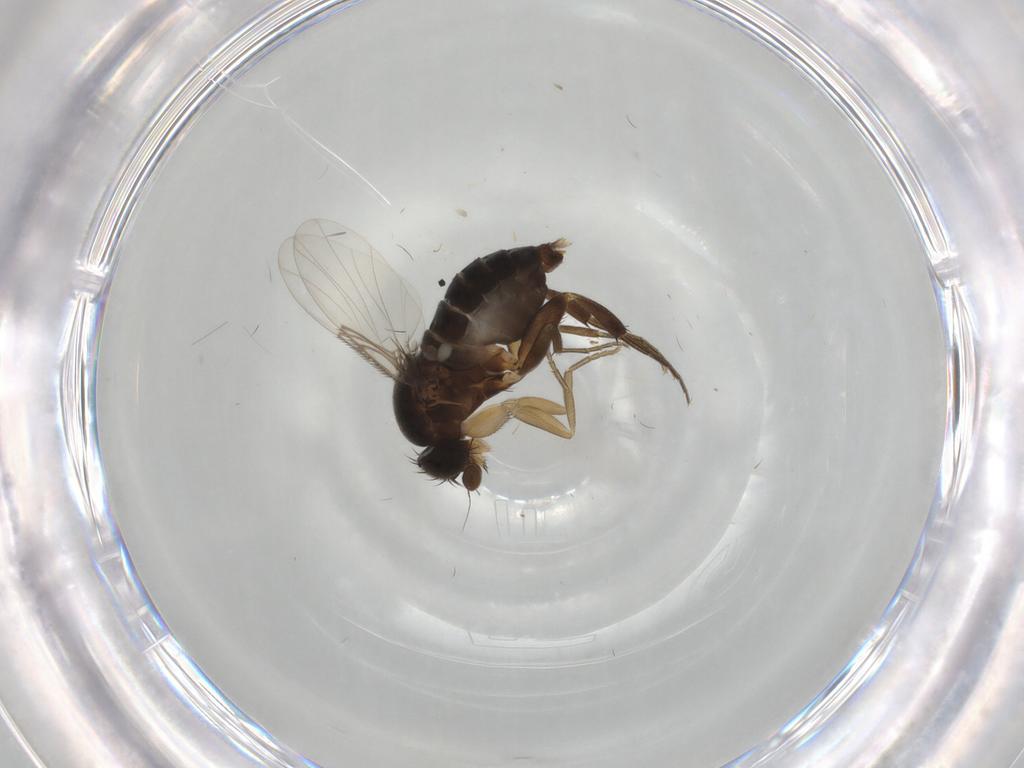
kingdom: Animalia
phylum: Arthropoda
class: Insecta
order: Diptera
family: Phoridae
